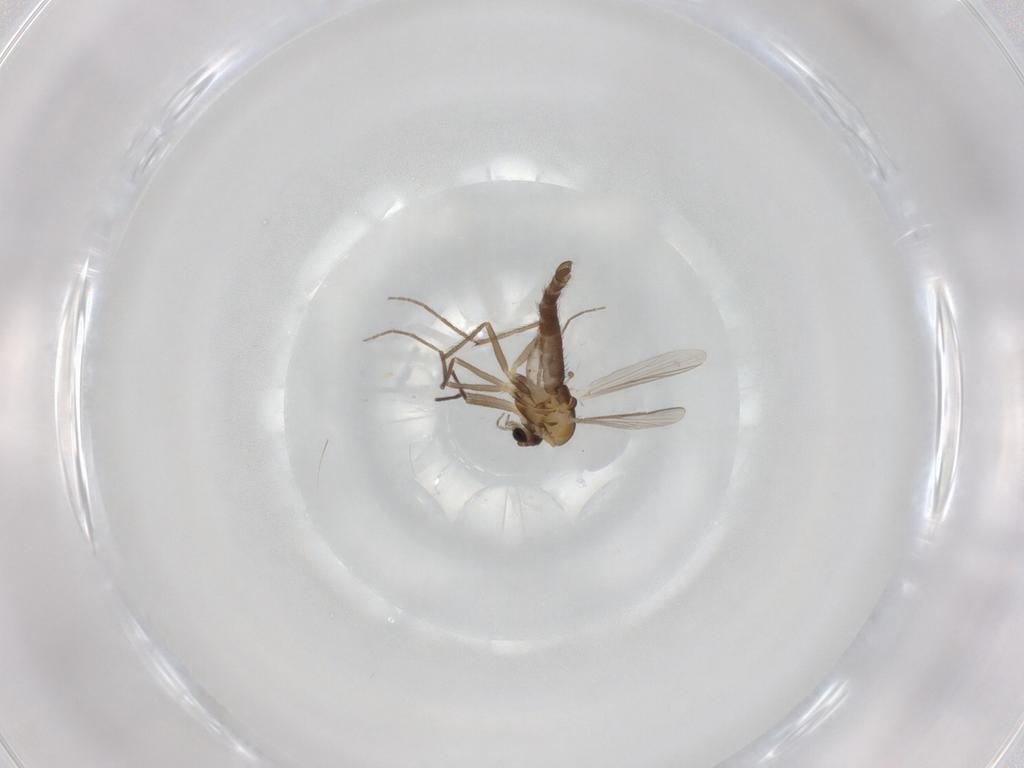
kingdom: Animalia
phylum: Arthropoda
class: Insecta
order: Diptera
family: Chironomidae
